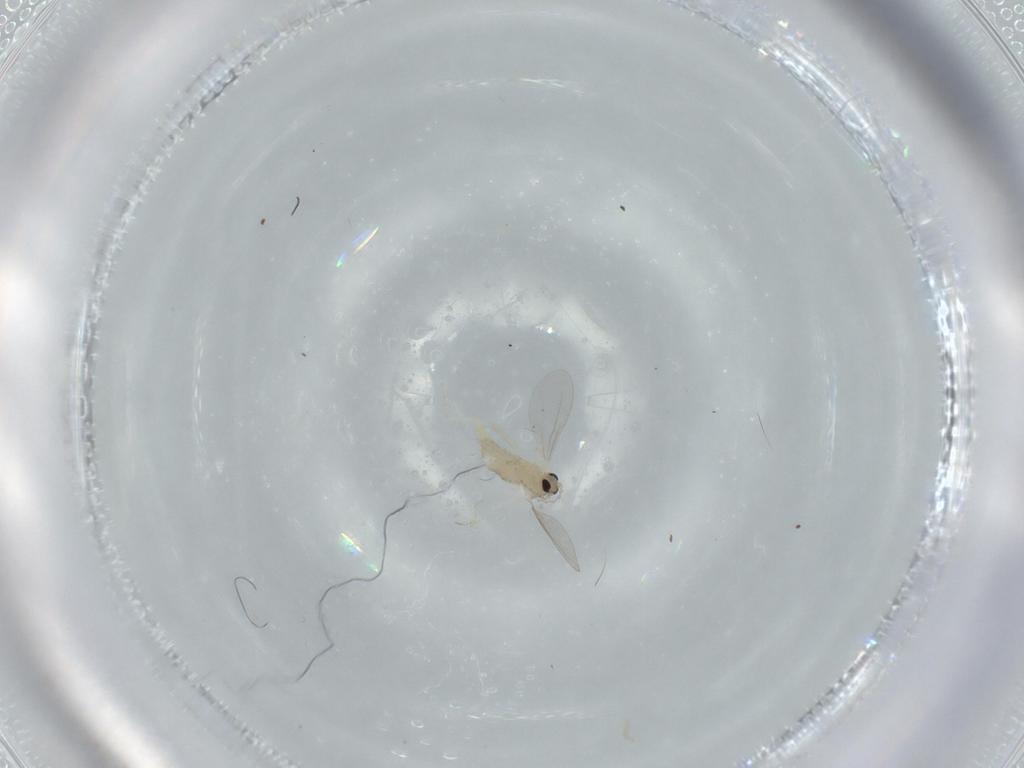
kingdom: Animalia
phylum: Arthropoda
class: Insecta
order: Diptera
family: Cecidomyiidae
